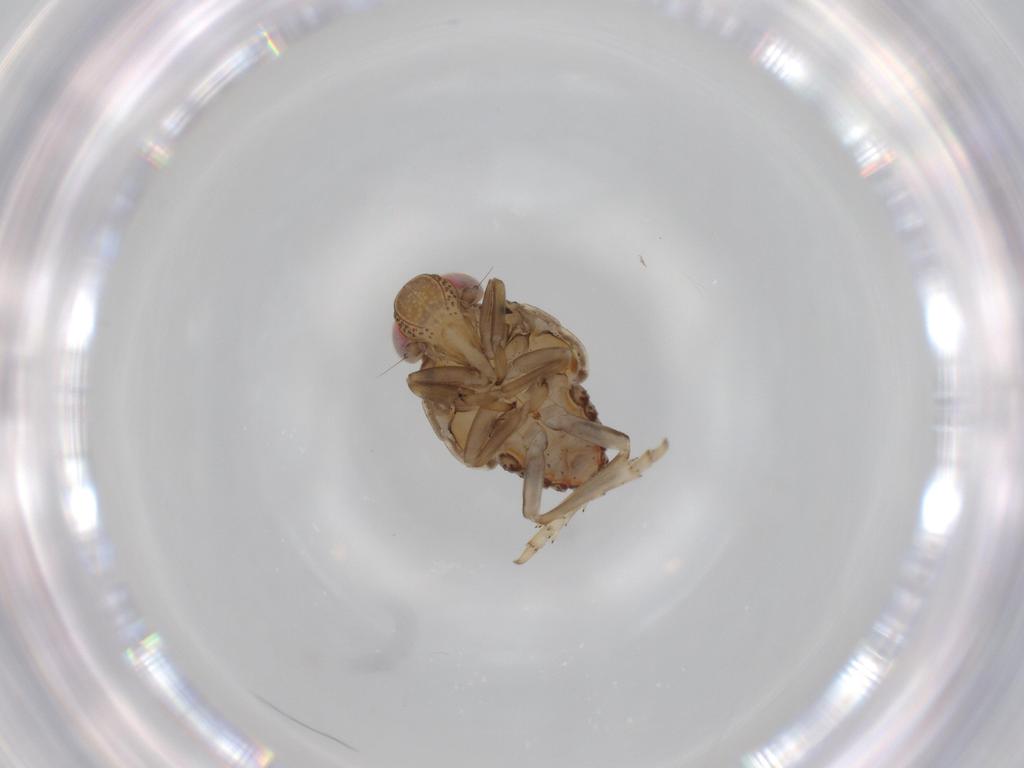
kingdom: Animalia
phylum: Arthropoda
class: Insecta
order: Hemiptera
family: Issidae
